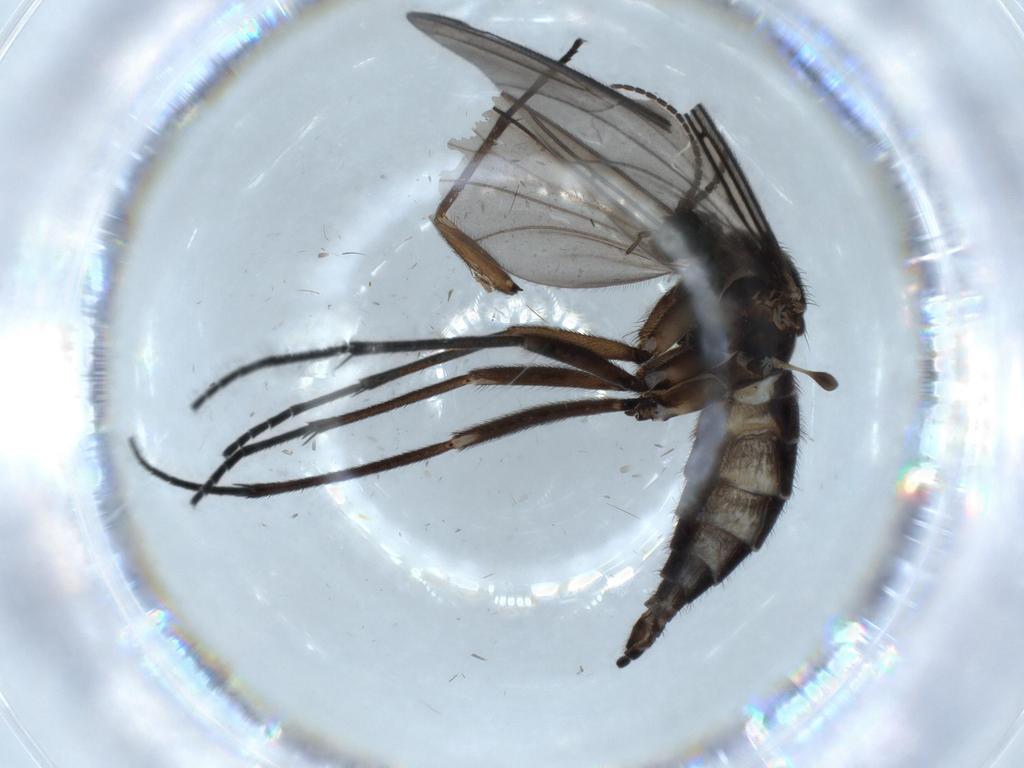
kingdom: Animalia
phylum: Arthropoda
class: Insecta
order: Diptera
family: Sciaridae
